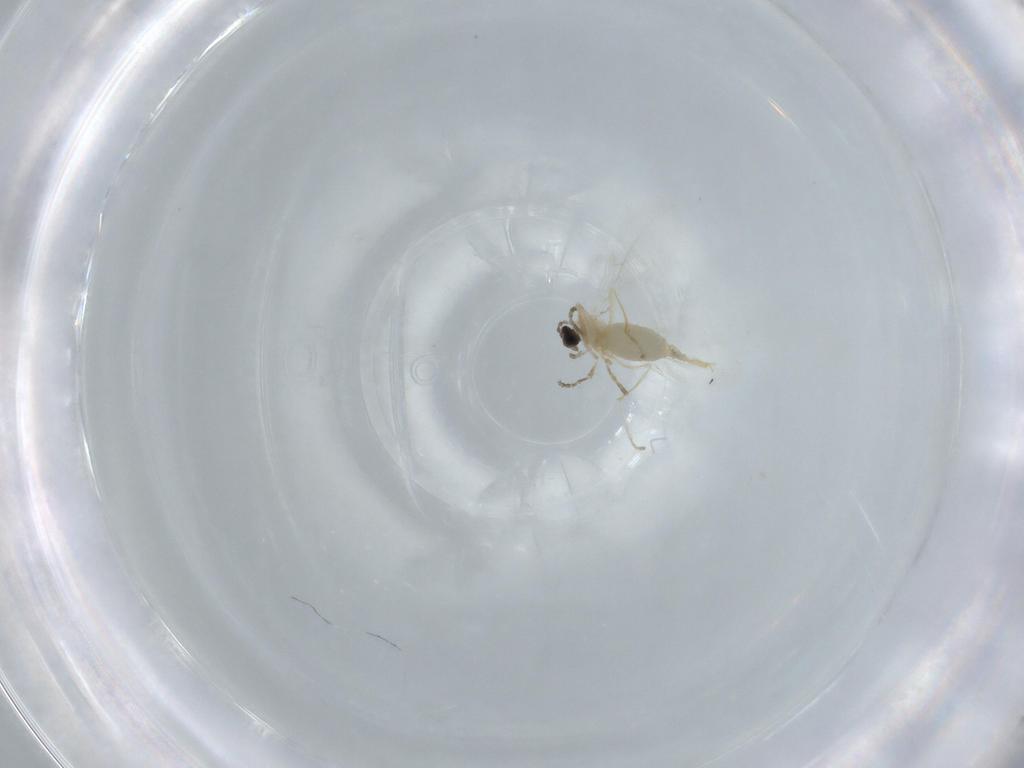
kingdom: Animalia
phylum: Arthropoda
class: Insecta
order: Diptera
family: Cecidomyiidae
